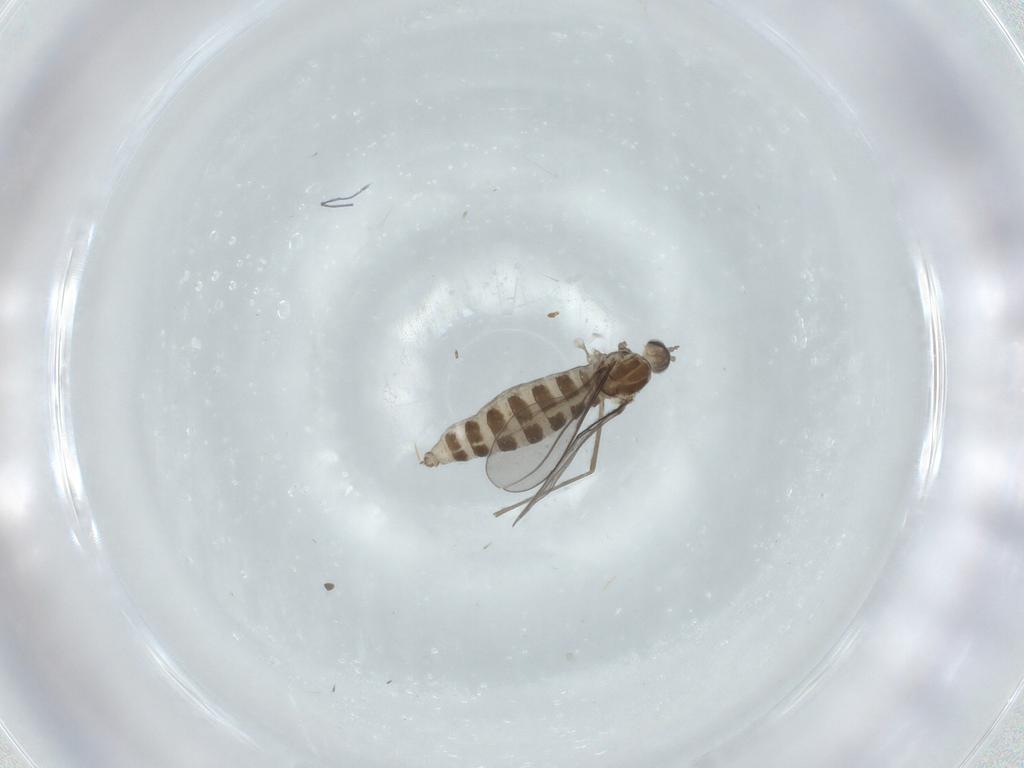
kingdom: Animalia
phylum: Arthropoda
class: Insecta
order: Diptera
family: Cecidomyiidae
